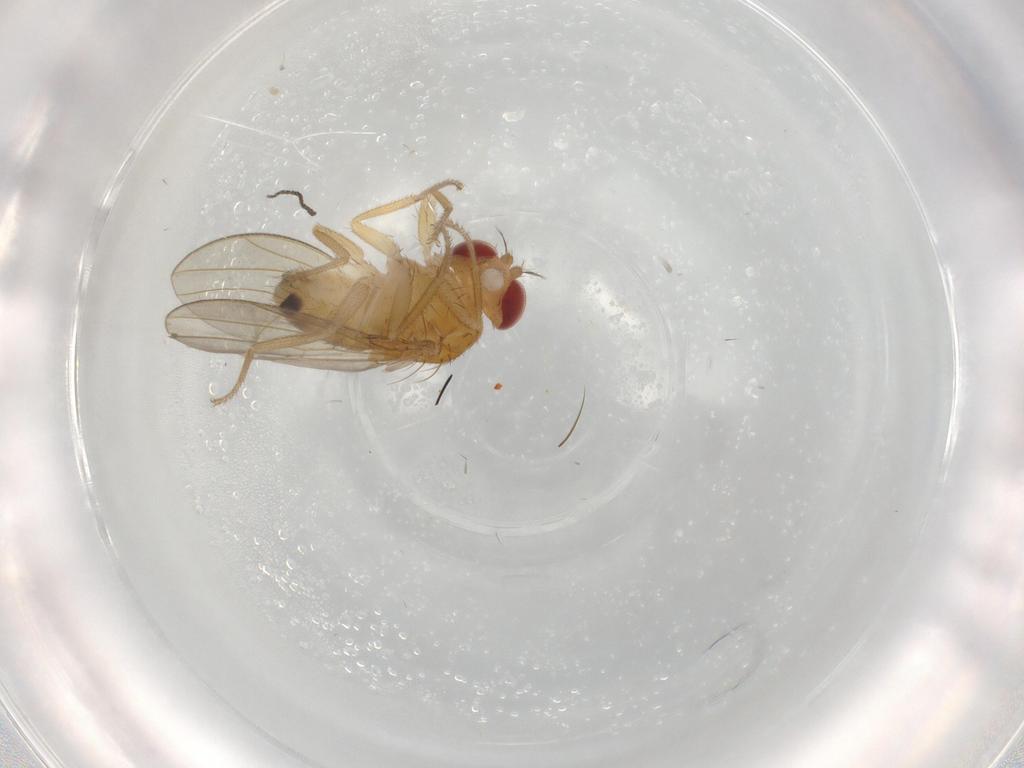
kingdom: Animalia
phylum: Arthropoda
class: Insecta
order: Diptera
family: Drosophilidae
